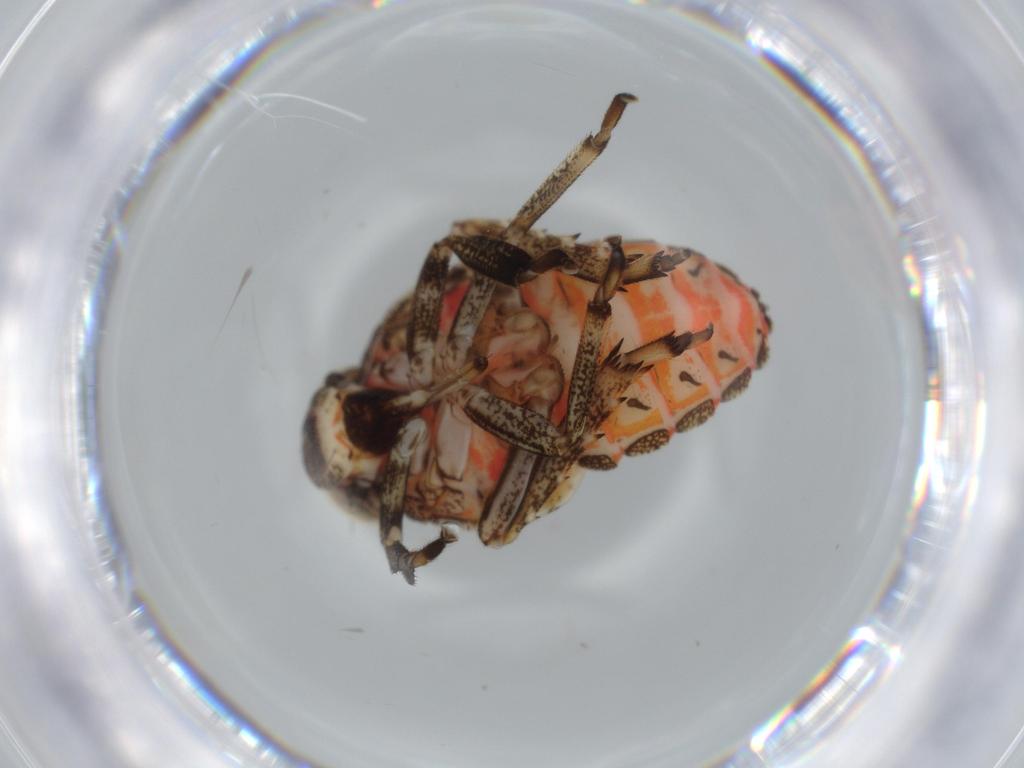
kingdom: Animalia
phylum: Arthropoda
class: Insecta
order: Hemiptera
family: Issidae
